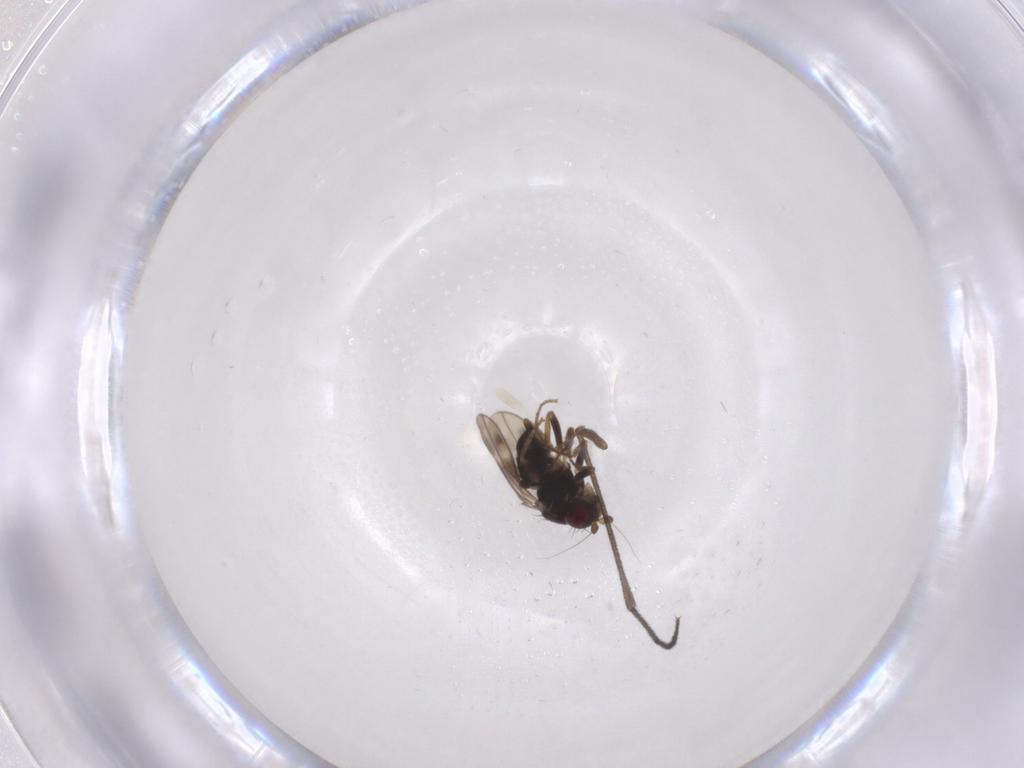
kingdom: Animalia
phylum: Arthropoda
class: Insecta
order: Diptera
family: Sphaeroceridae
